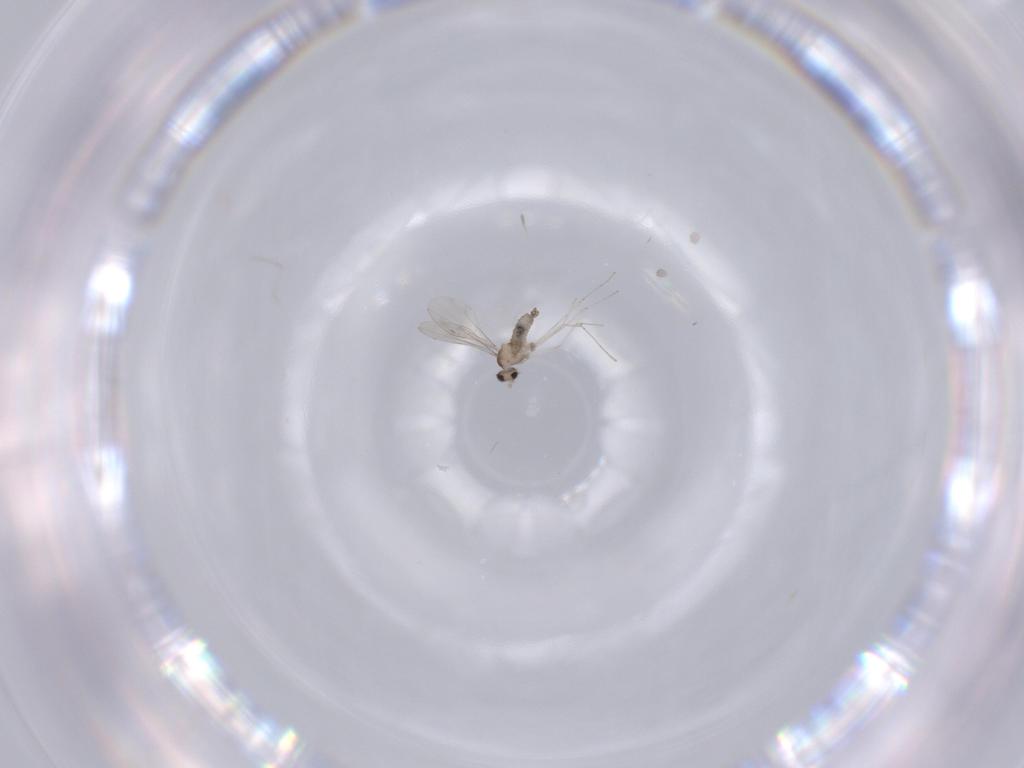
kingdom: Animalia
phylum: Arthropoda
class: Insecta
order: Diptera
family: Cecidomyiidae
